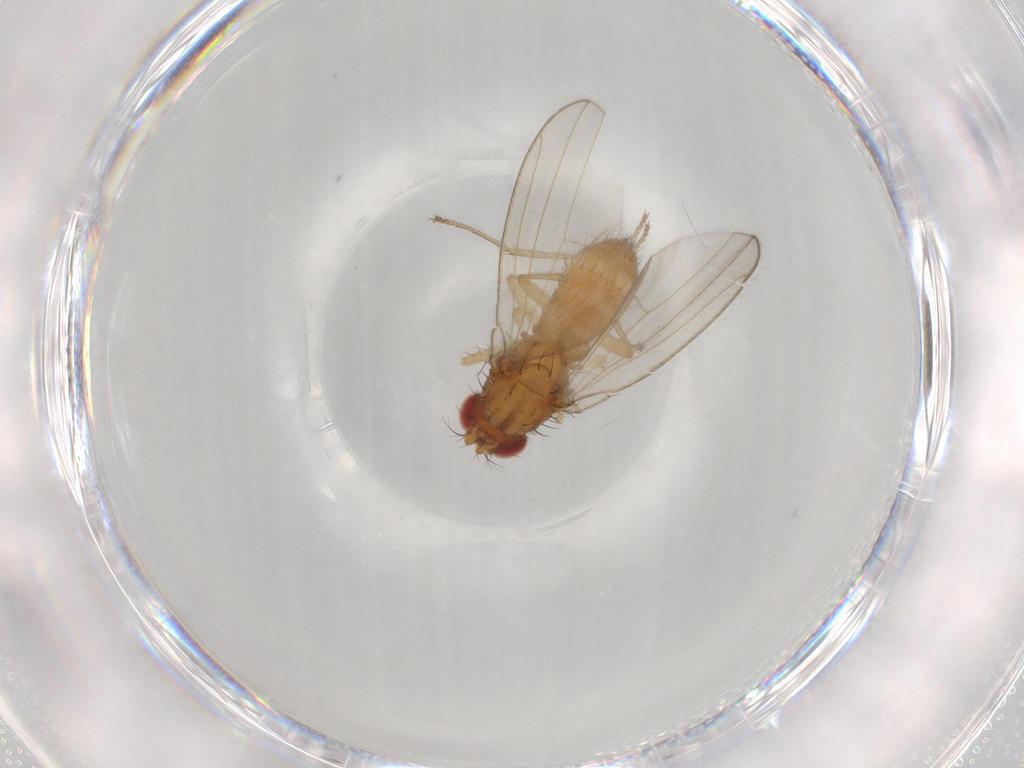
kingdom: Animalia
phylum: Arthropoda
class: Insecta
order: Diptera
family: Drosophilidae
